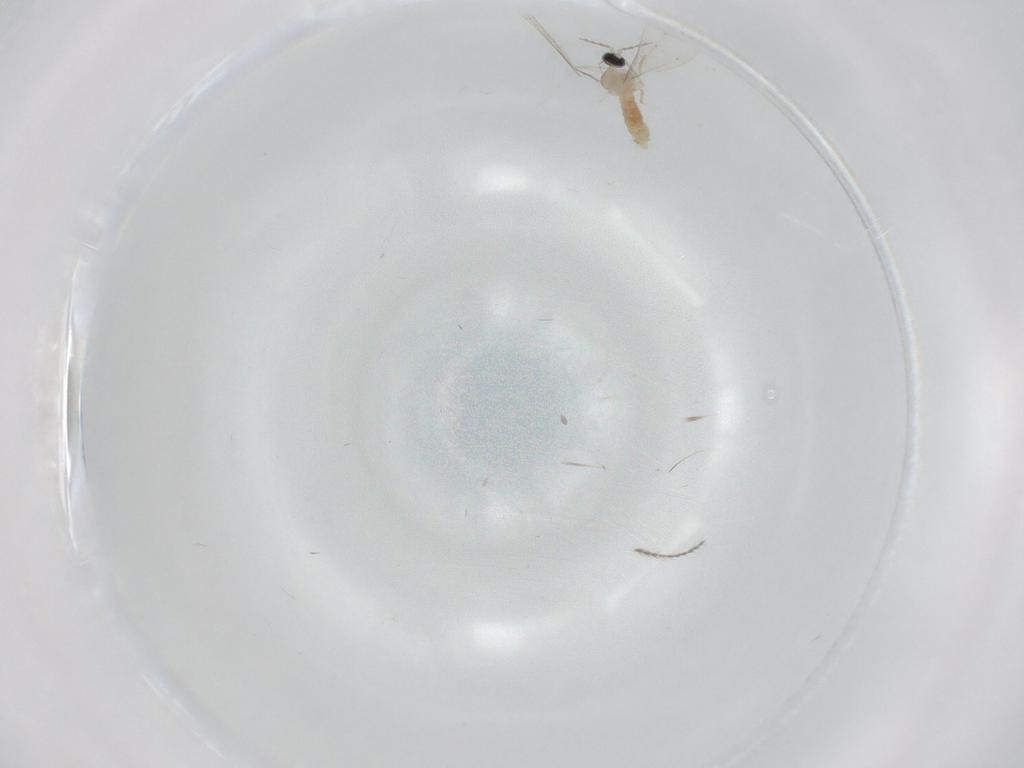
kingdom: Animalia
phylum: Arthropoda
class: Insecta
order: Diptera
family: Cecidomyiidae
